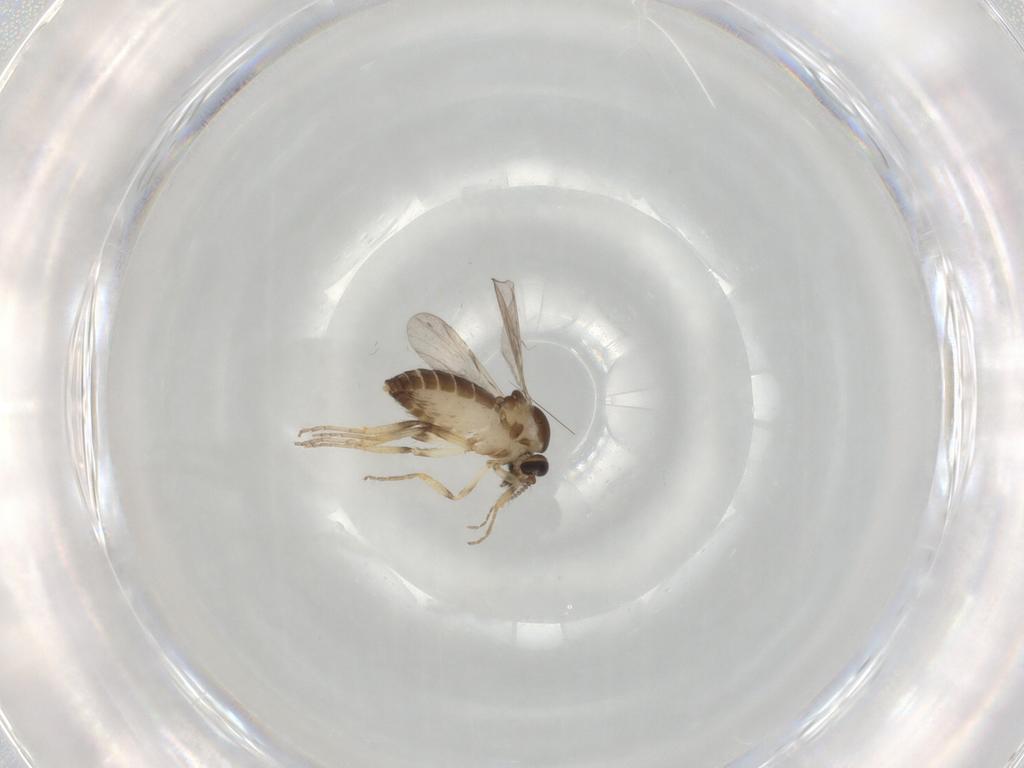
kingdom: Animalia
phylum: Arthropoda
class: Insecta
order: Diptera
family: Ceratopogonidae
